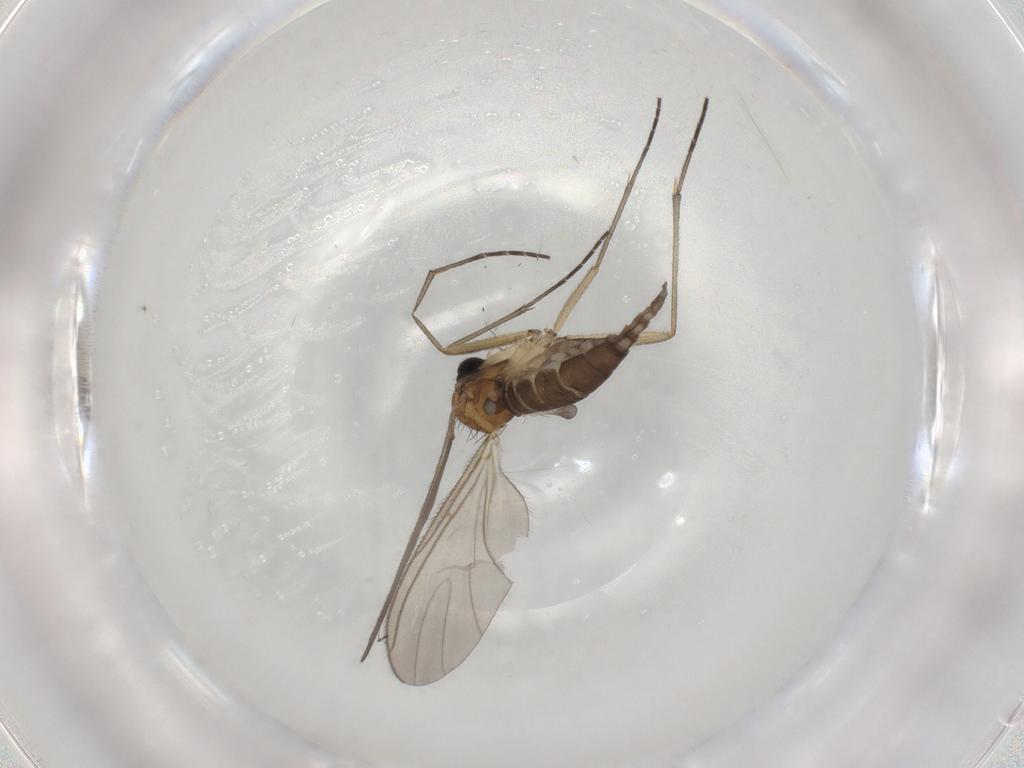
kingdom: Animalia
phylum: Arthropoda
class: Insecta
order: Diptera
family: Sciaridae
